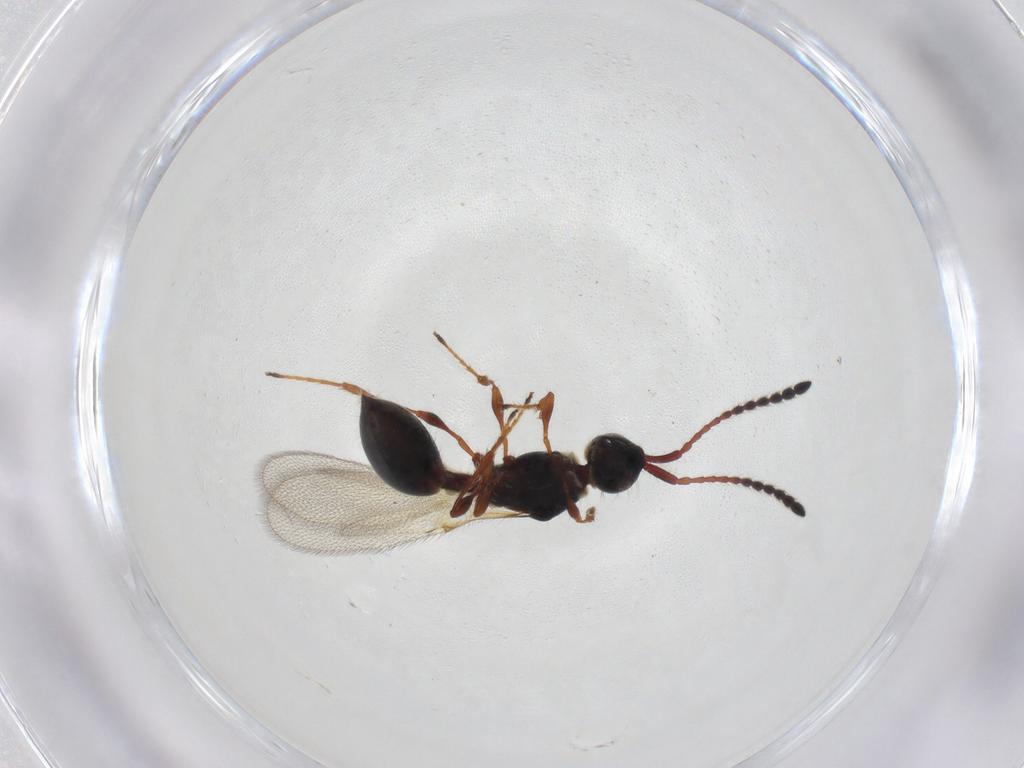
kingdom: Animalia
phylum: Arthropoda
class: Insecta
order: Hymenoptera
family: Diapriidae
